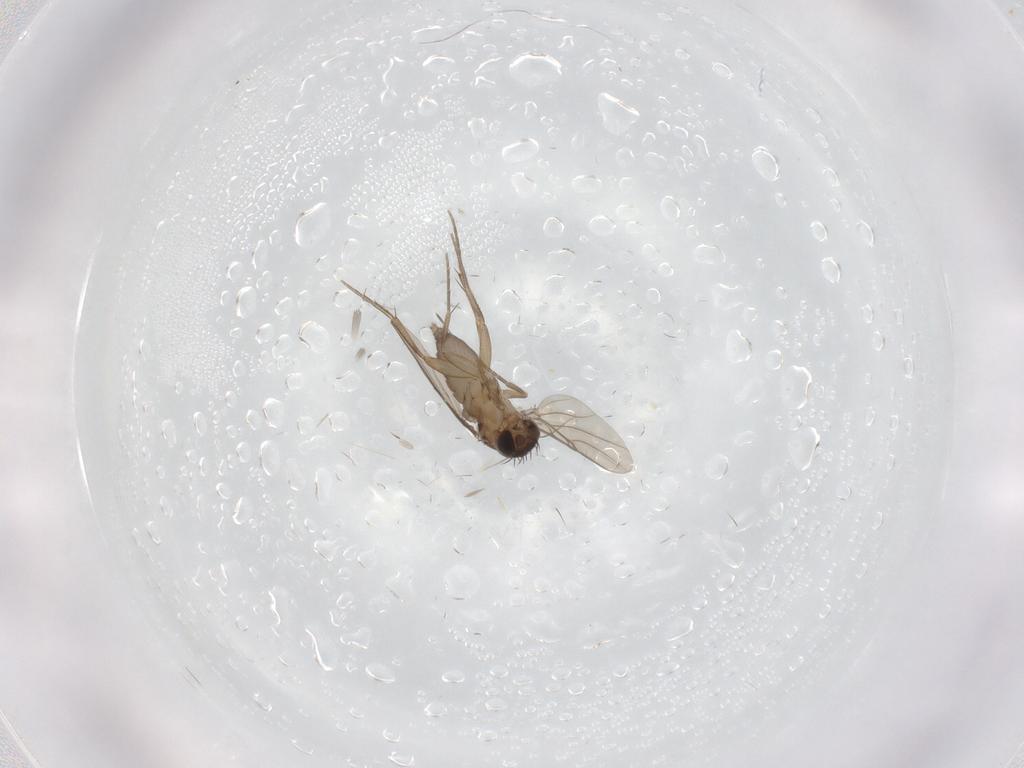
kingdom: Animalia
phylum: Arthropoda
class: Insecta
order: Diptera
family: Phoridae
